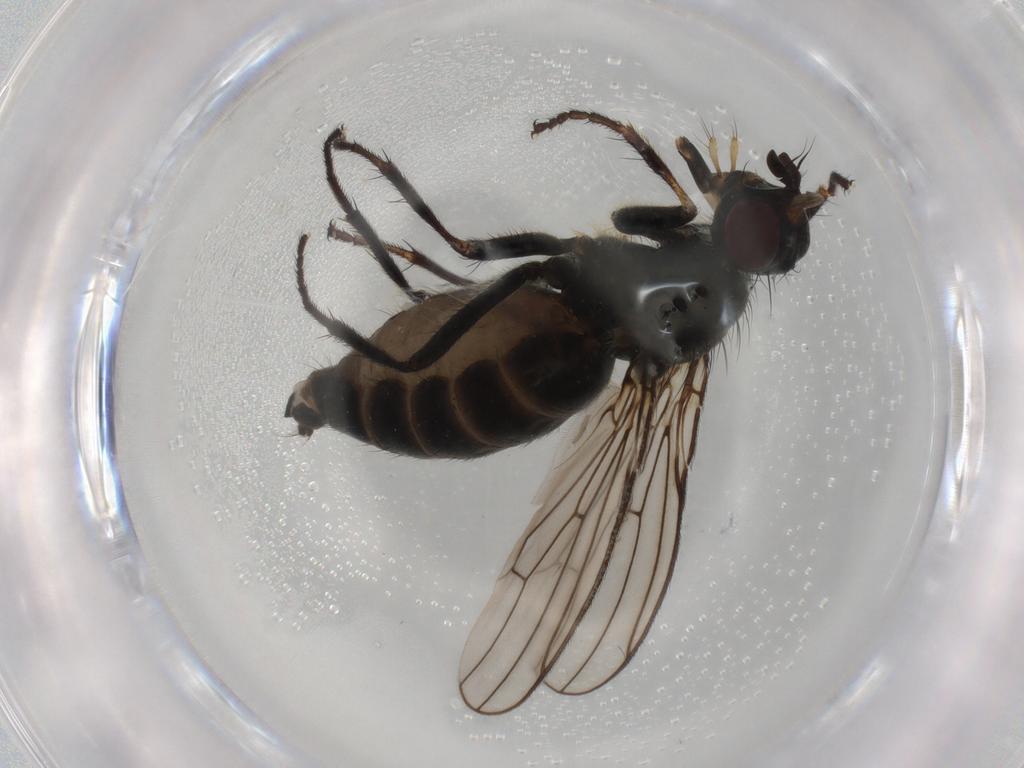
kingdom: Animalia
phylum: Arthropoda
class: Insecta
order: Diptera
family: Scathophagidae
